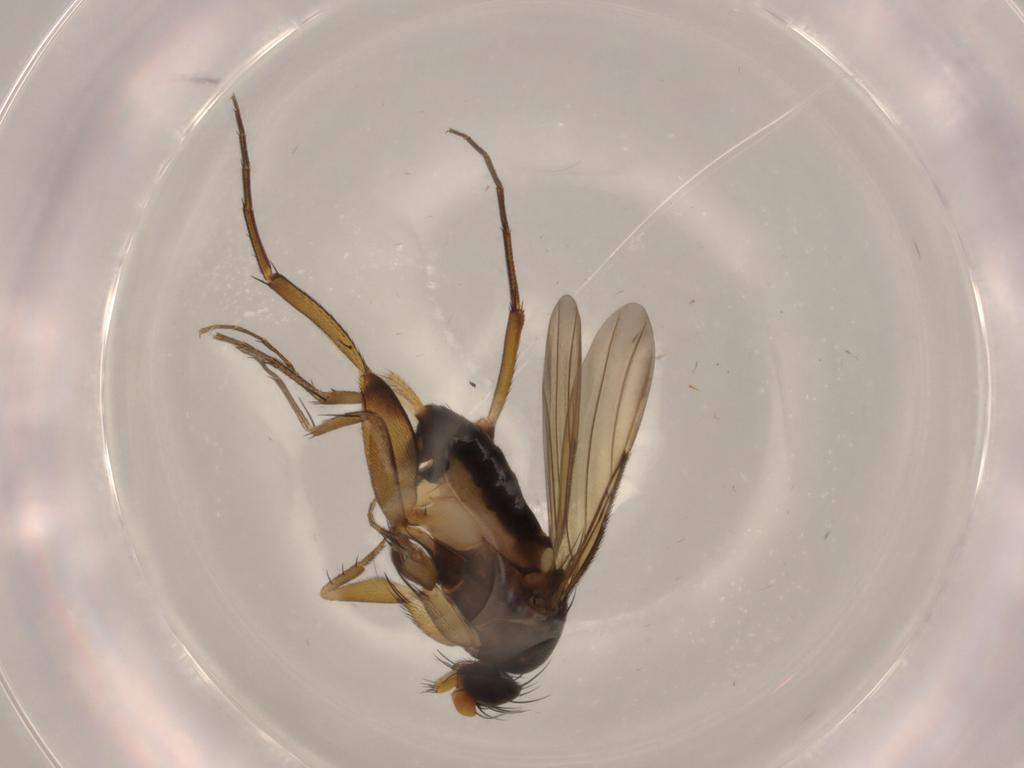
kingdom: Animalia
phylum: Arthropoda
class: Insecta
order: Diptera
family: Phoridae
